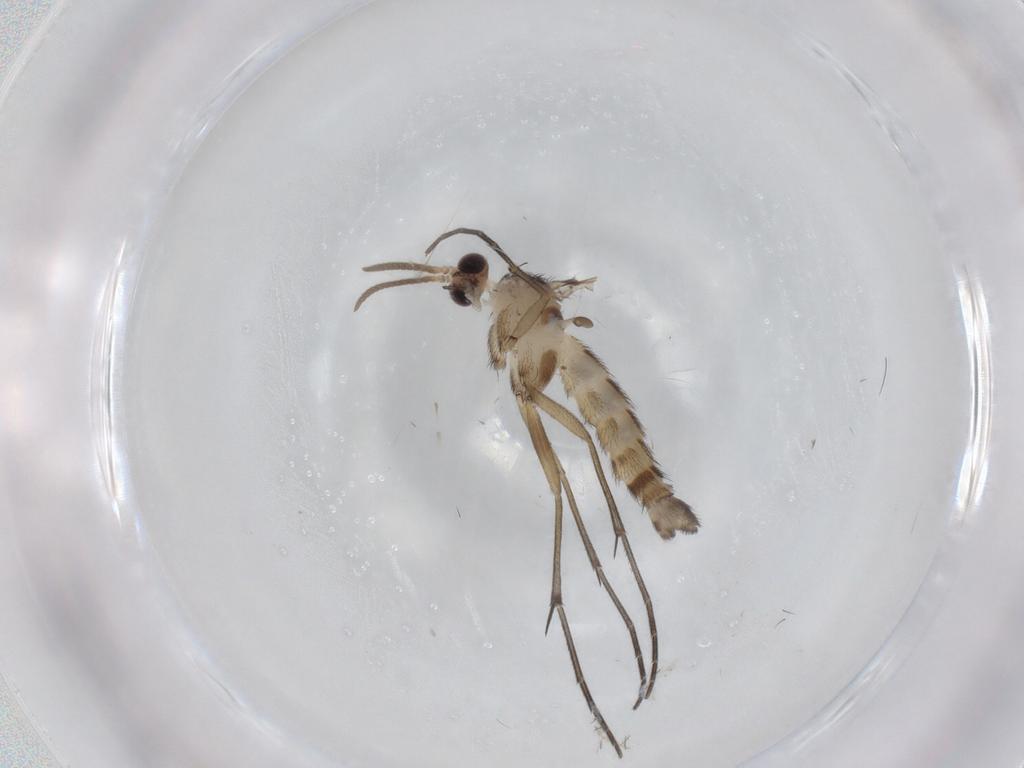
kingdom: Animalia
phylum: Arthropoda
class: Insecta
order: Diptera
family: Keroplatidae
